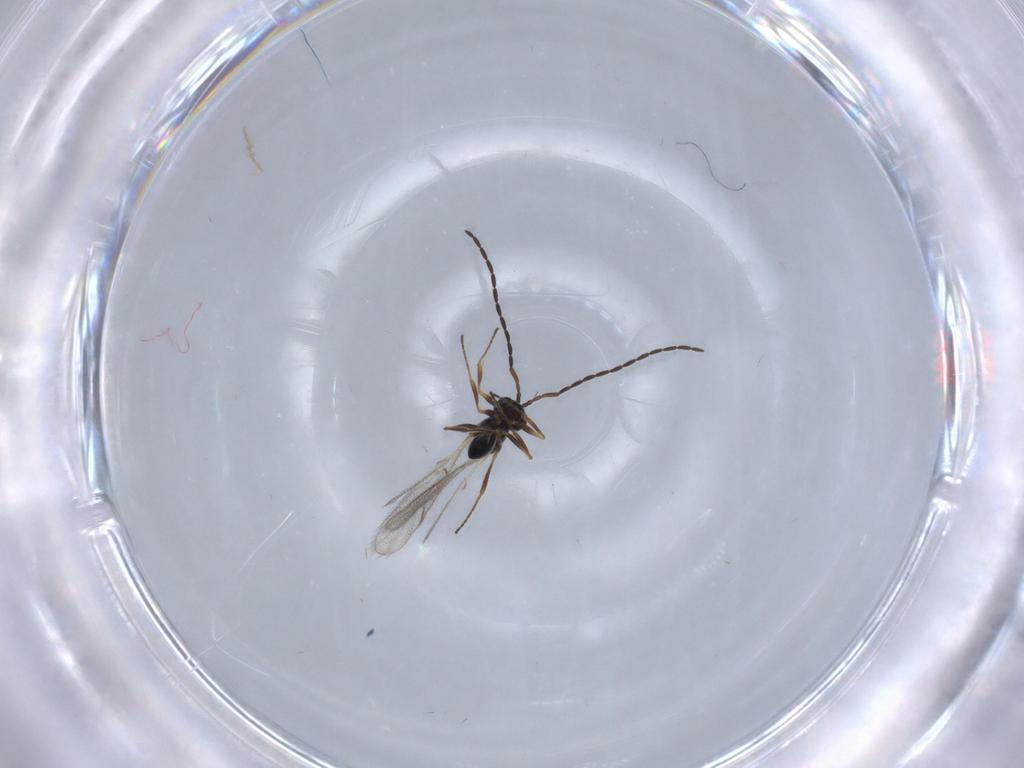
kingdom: Animalia
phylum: Arthropoda
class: Insecta
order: Hymenoptera
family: Figitidae
